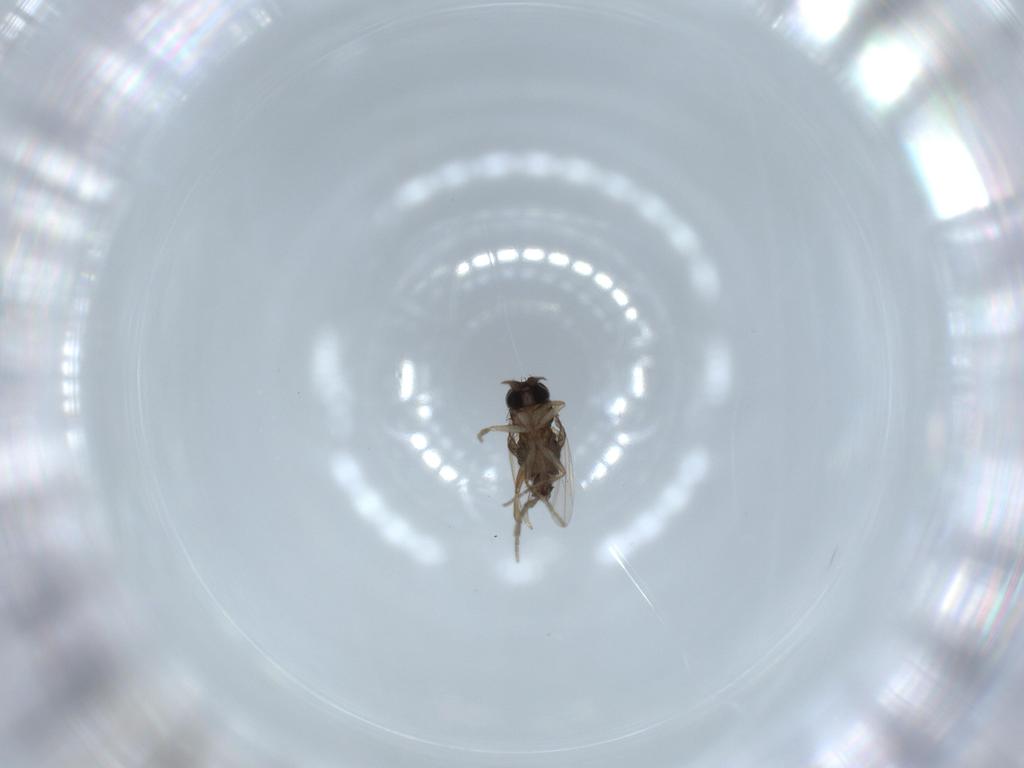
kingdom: Animalia
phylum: Arthropoda
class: Insecta
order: Diptera
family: Phoridae
